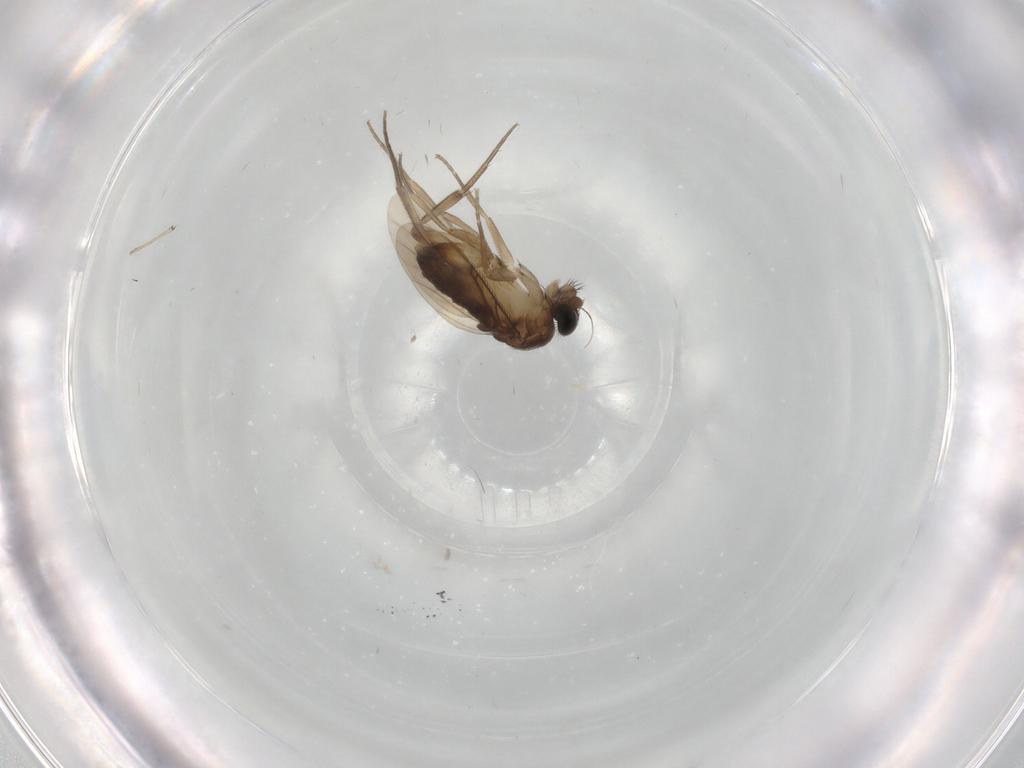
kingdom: Animalia
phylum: Arthropoda
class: Insecta
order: Diptera
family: Phoridae
